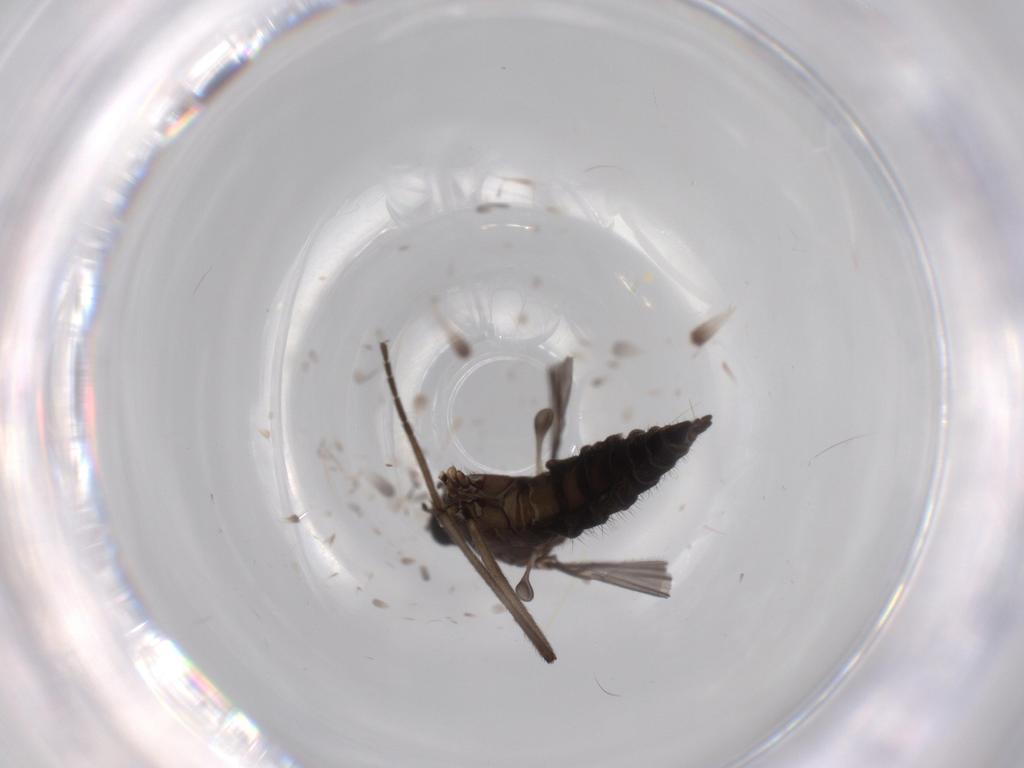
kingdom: Animalia
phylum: Arthropoda
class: Insecta
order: Diptera
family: Sciaridae
